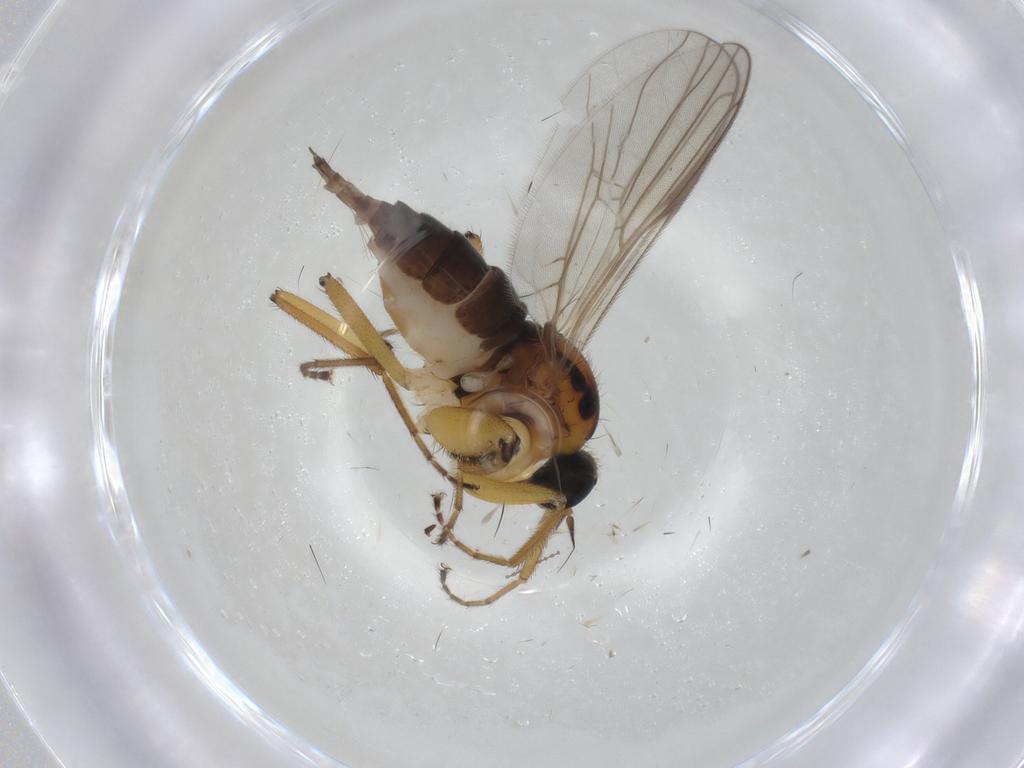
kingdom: Animalia
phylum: Arthropoda
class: Insecta
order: Diptera
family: Hybotidae
